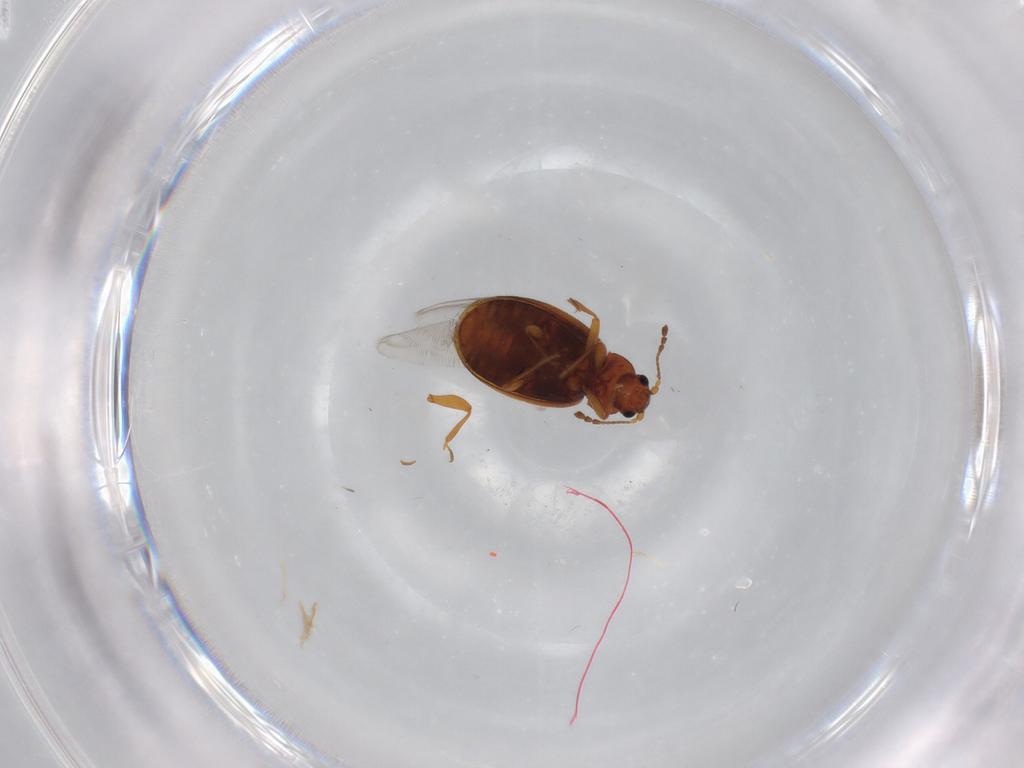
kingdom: Animalia
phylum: Arthropoda
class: Insecta
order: Coleoptera
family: Latridiidae
